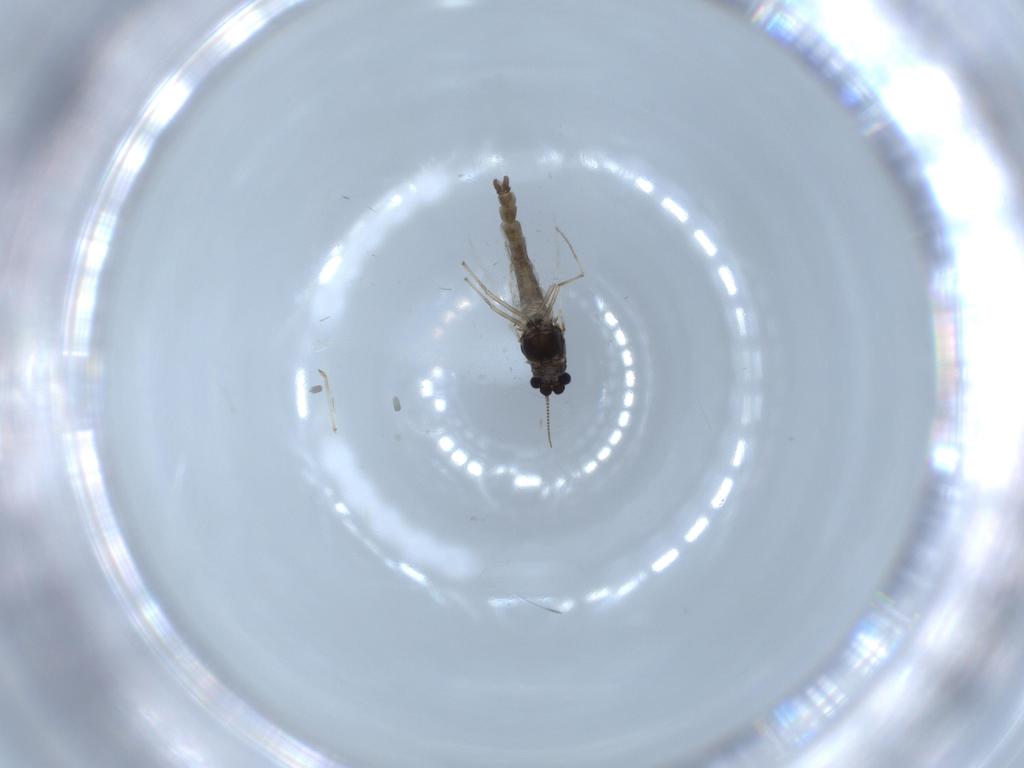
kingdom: Animalia
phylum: Arthropoda
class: Insecta
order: Diptera
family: Chironomidae
